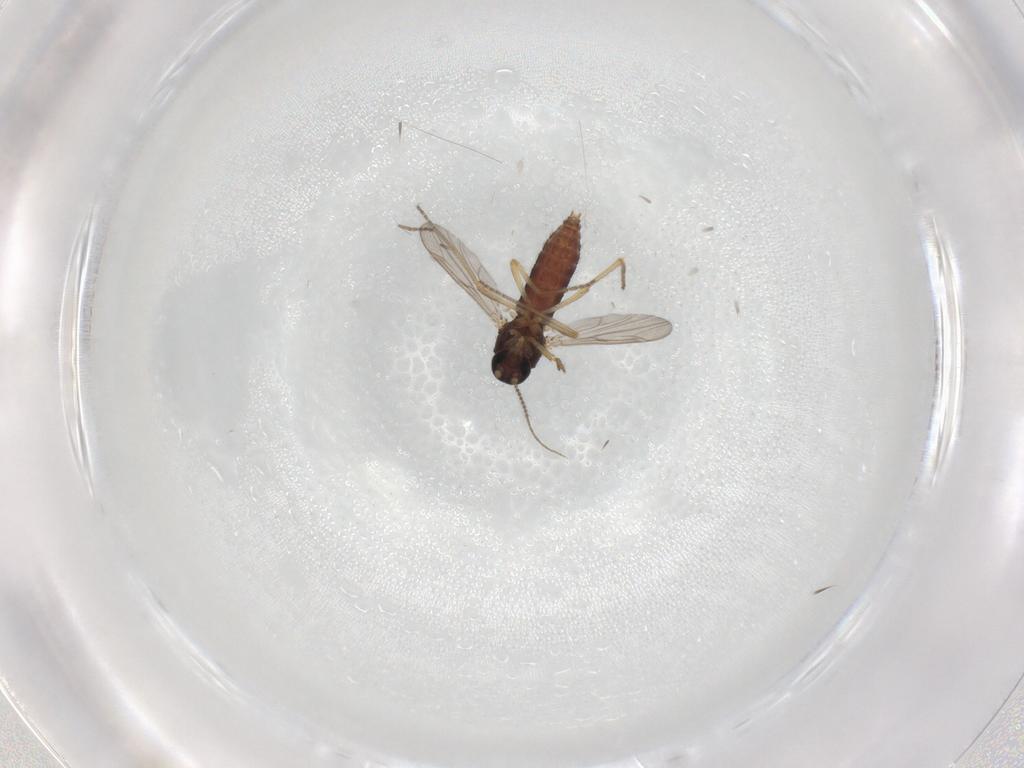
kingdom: Animalia
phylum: Arthropoda
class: Insecta
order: Diptera
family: Ceratopogonidae
